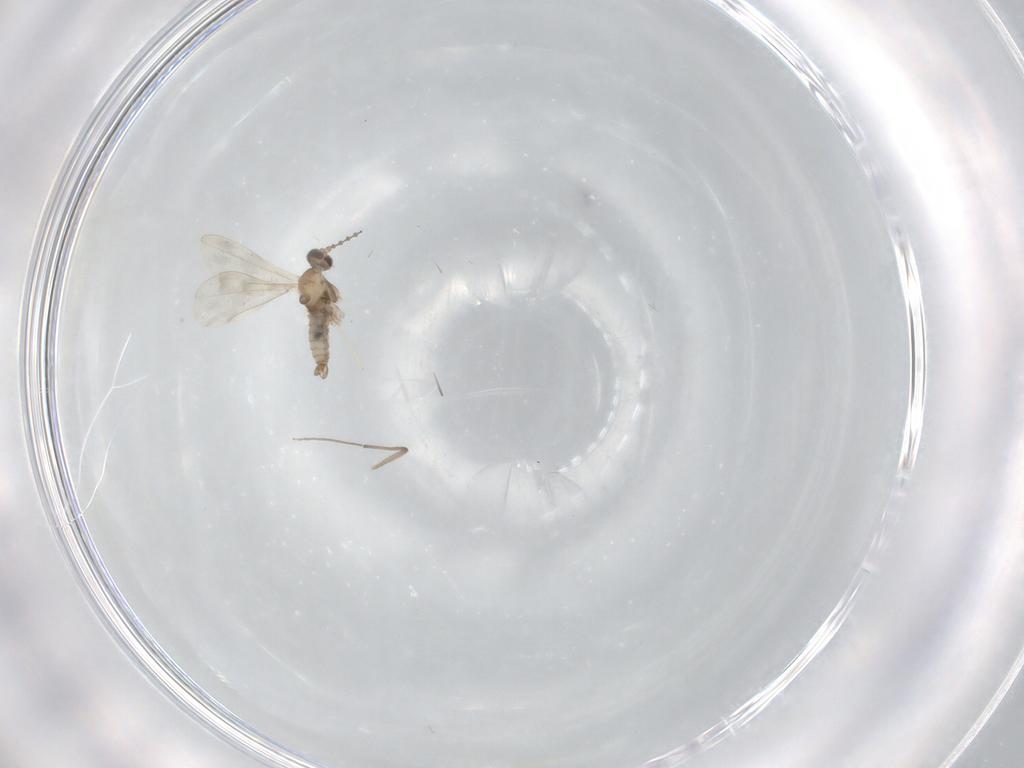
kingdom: Animalia
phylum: Arthropoda
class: Insecta
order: Diptera
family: Cecidomyiidae
